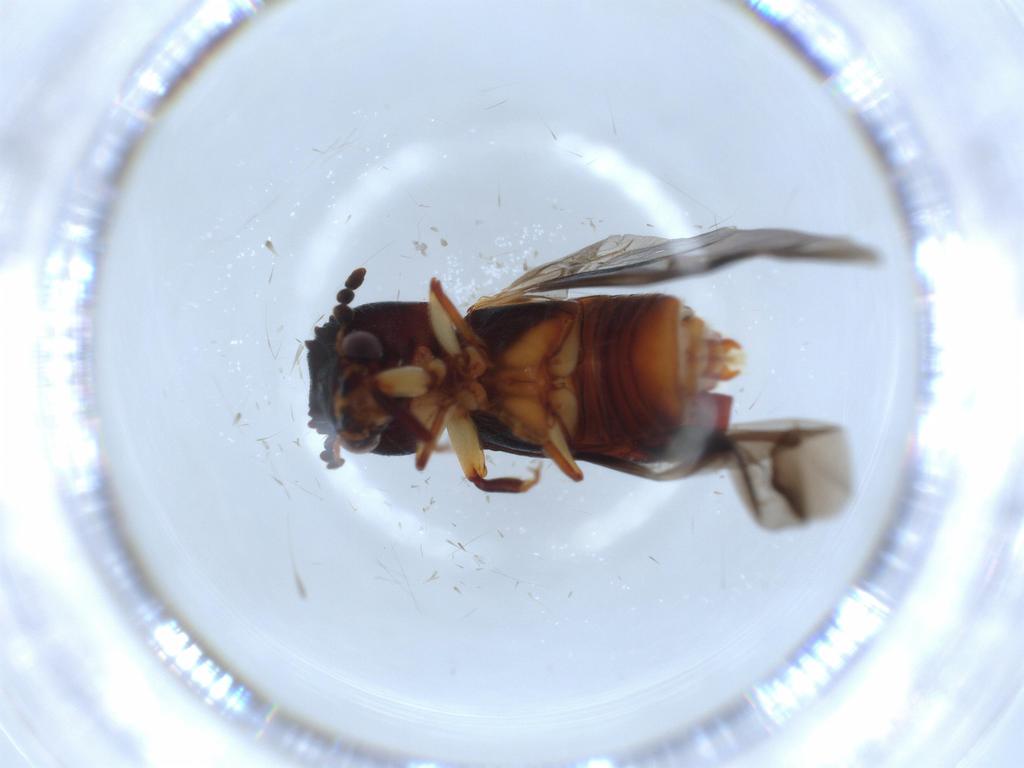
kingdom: Animalia
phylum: Arthropoda
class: Insecta
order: Coleoptera
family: Bostrichidae
